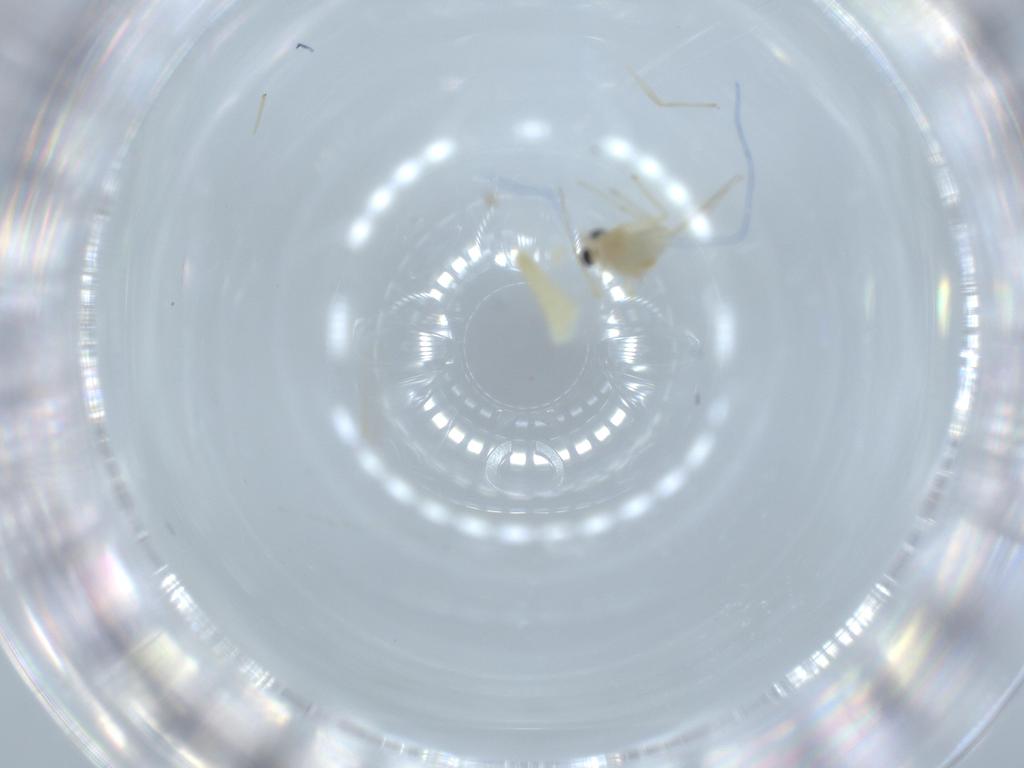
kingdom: Animalia
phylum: Arthropoda
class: Insecta
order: Diptera
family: Chironomidae
